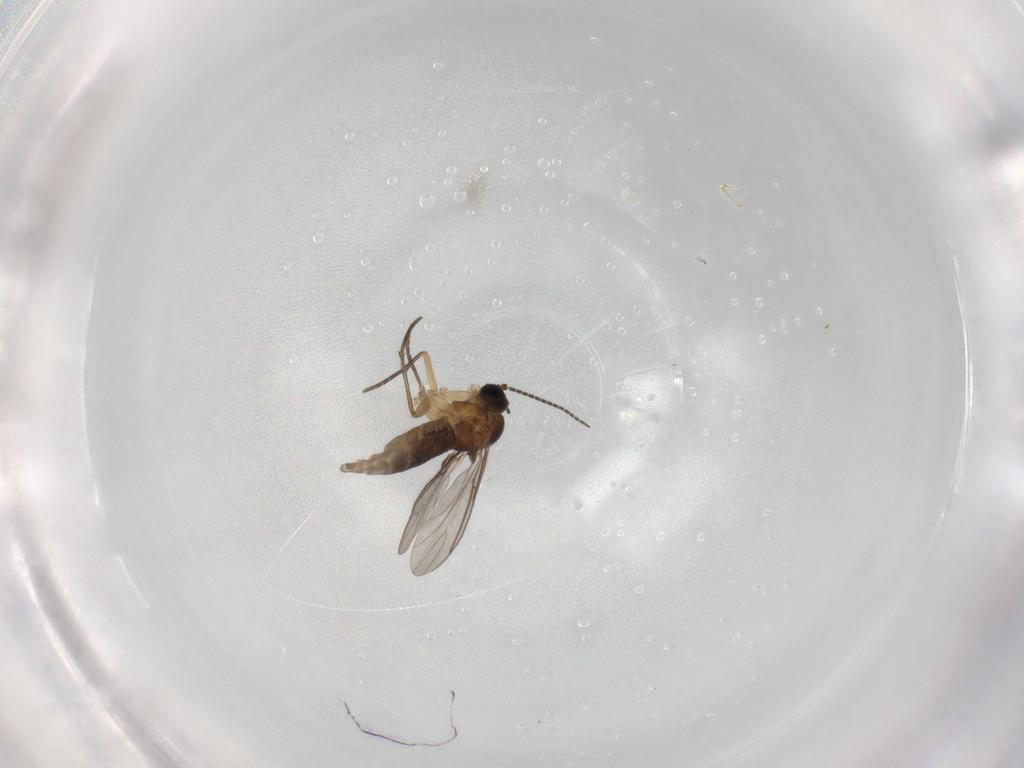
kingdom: Animalia
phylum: Arthropoda
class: Insecta
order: Diptera
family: Sciaridae
